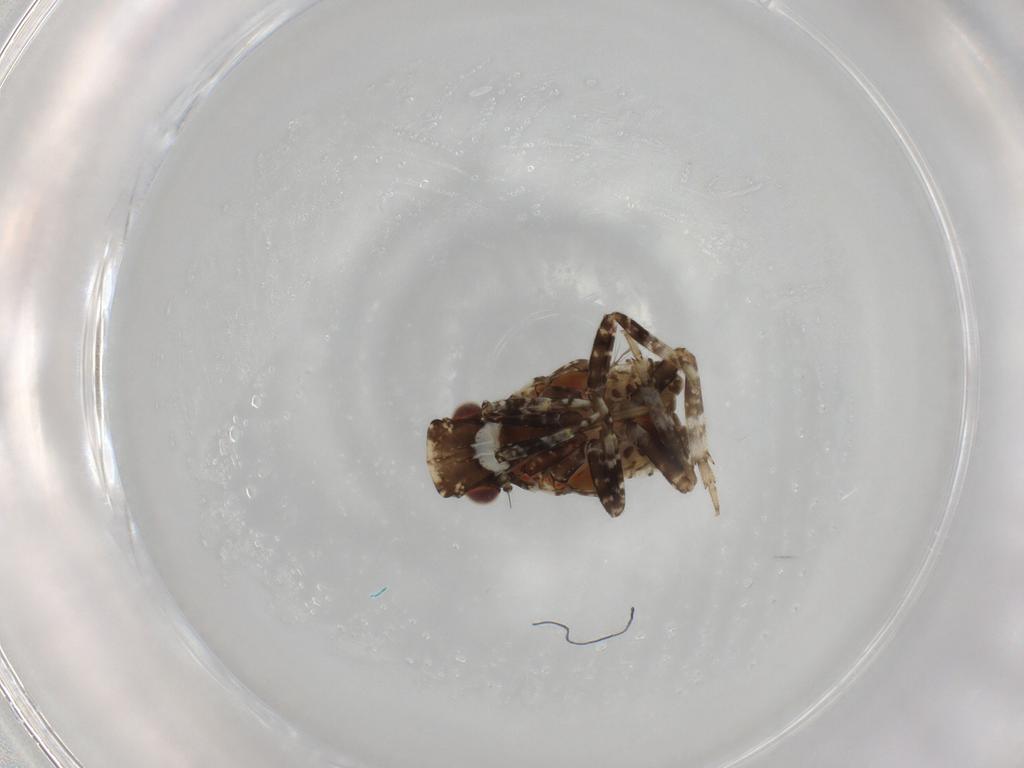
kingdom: Animalia
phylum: Arthropoda
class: Insecta
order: Hemiptera
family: Fulgoridae
